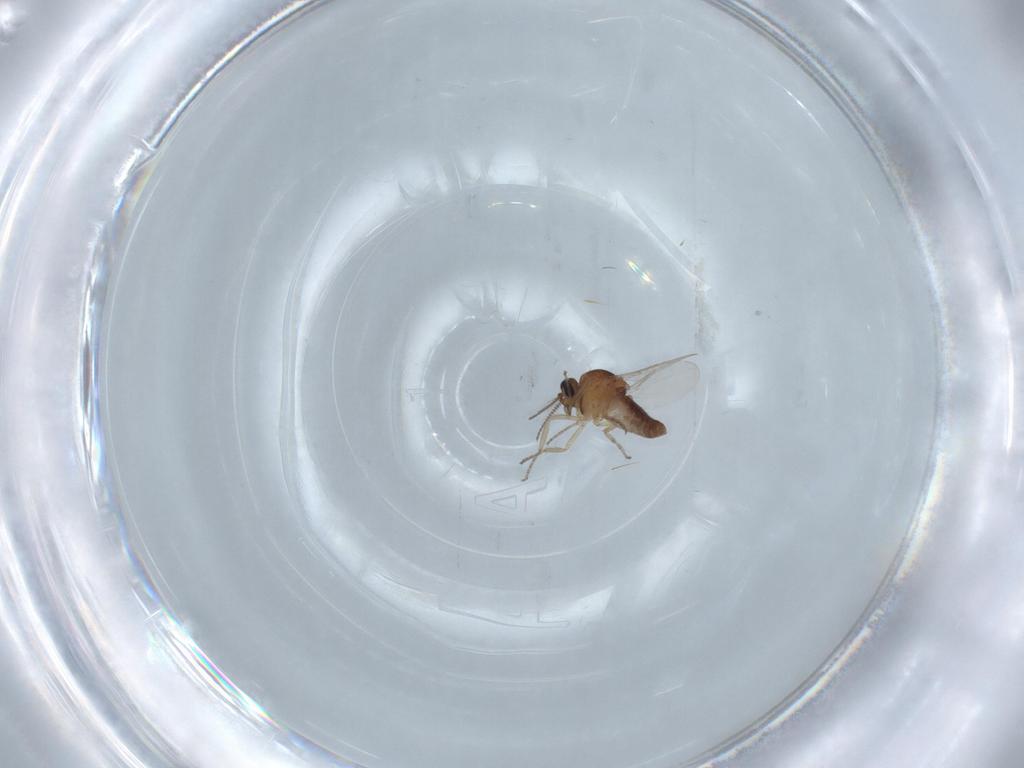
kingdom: Animalia
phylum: Arthropoda
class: Insecta
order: Diptera
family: Ceratopogonidae
